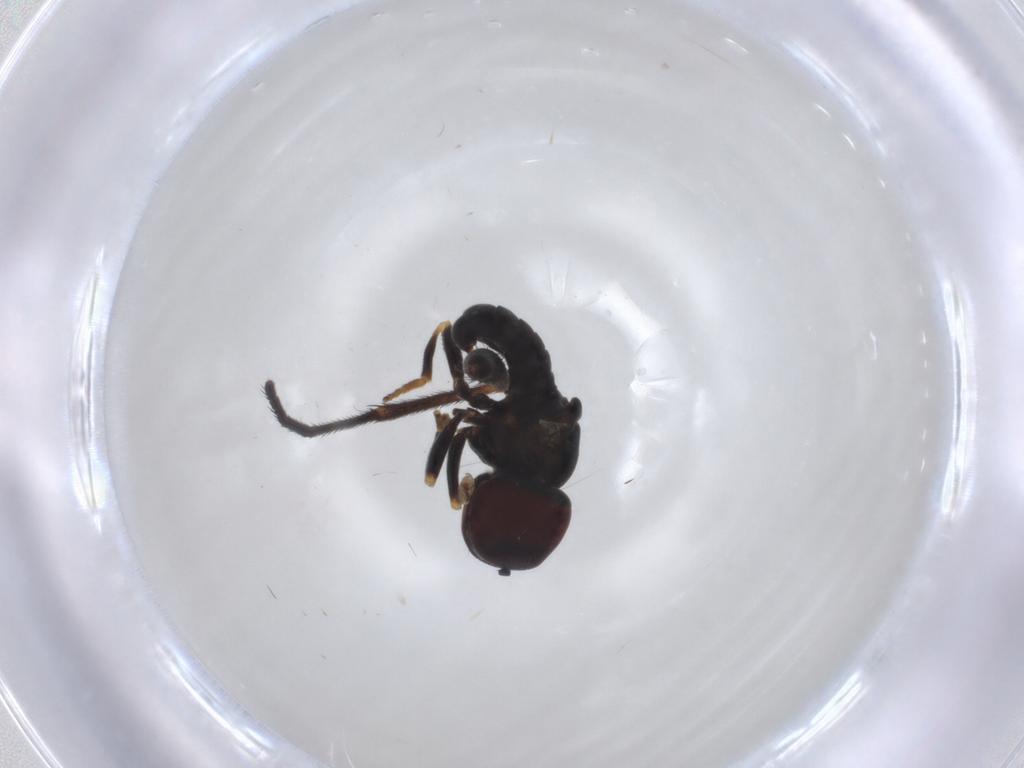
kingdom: Animalia
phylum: Arthropoda
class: Insecta
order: Diptera
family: Pipunculidae
